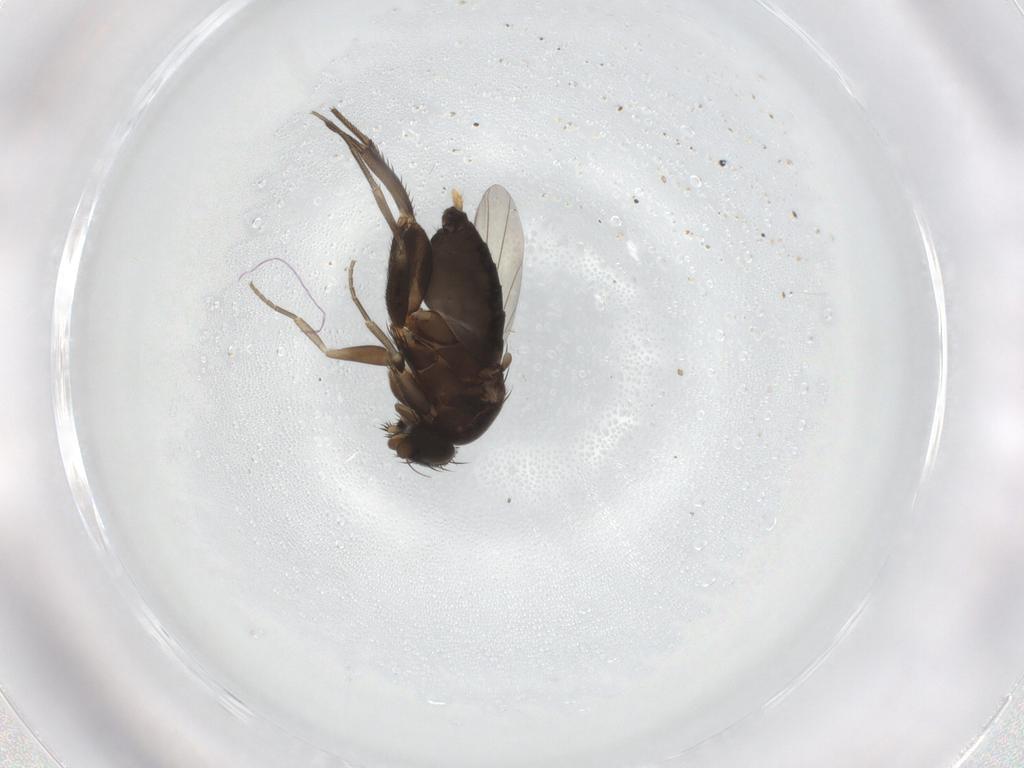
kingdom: Animalia
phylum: Arthropoda
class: Insecta
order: Diptera
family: Phoridae
